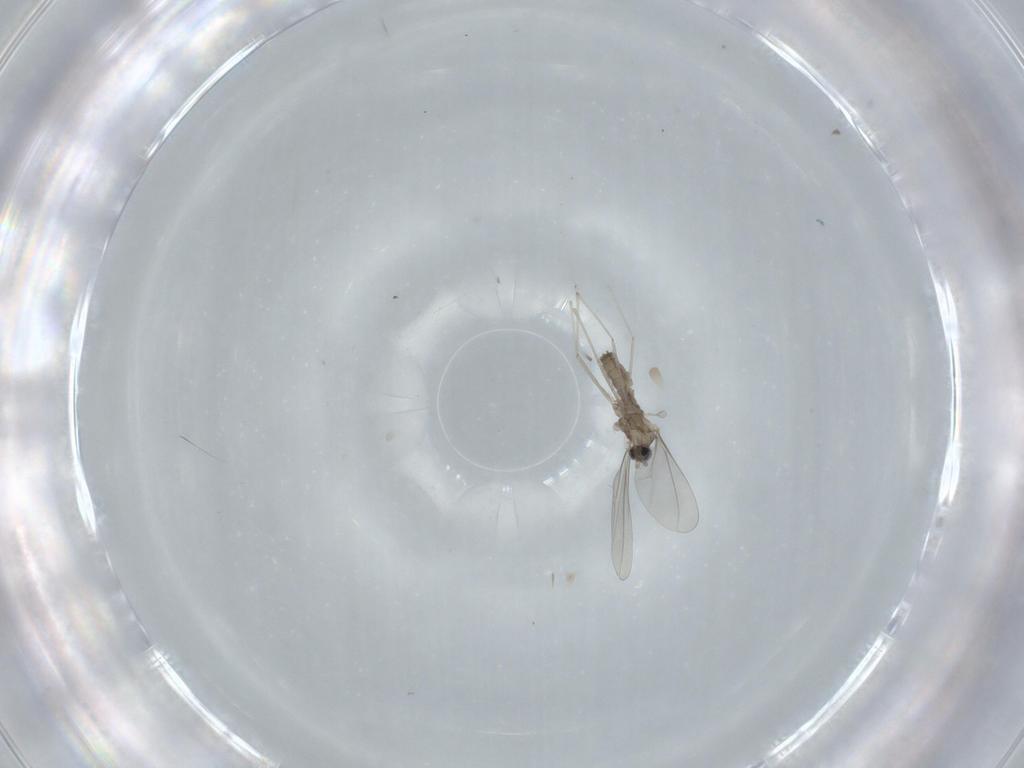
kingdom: Animalia
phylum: Arthropoda
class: Insecta
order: Diptera
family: Cecidomyiidae
